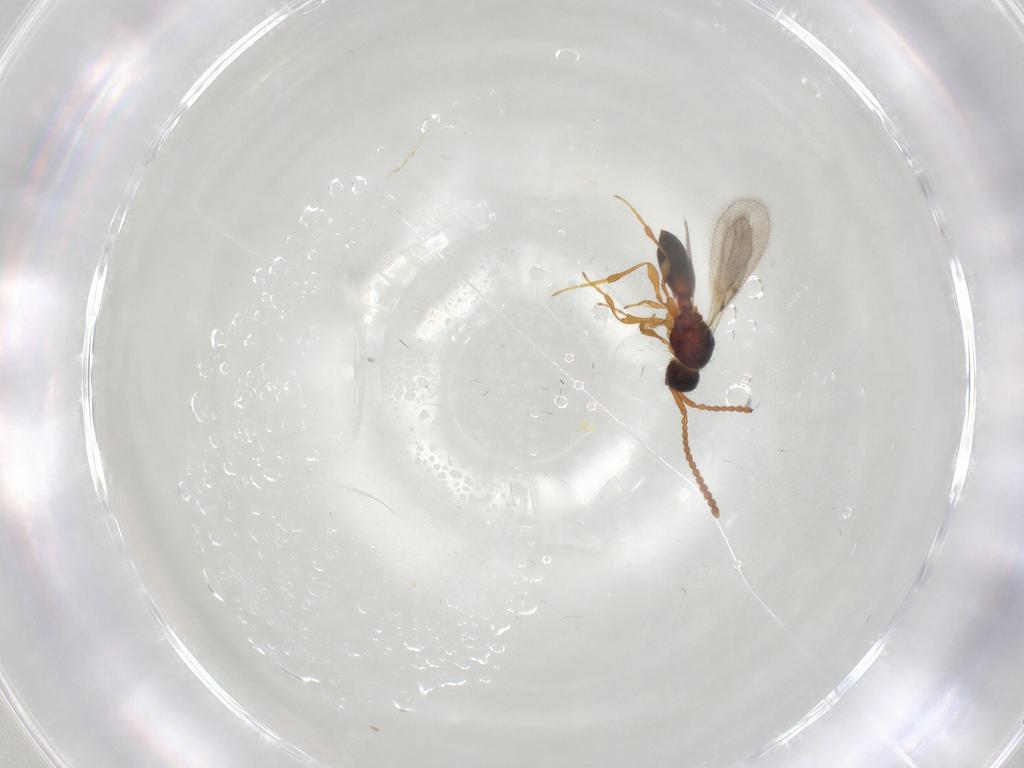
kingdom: Animalia
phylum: Arthropoda
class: Insecta
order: Hymenoptera
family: Diapriidae
